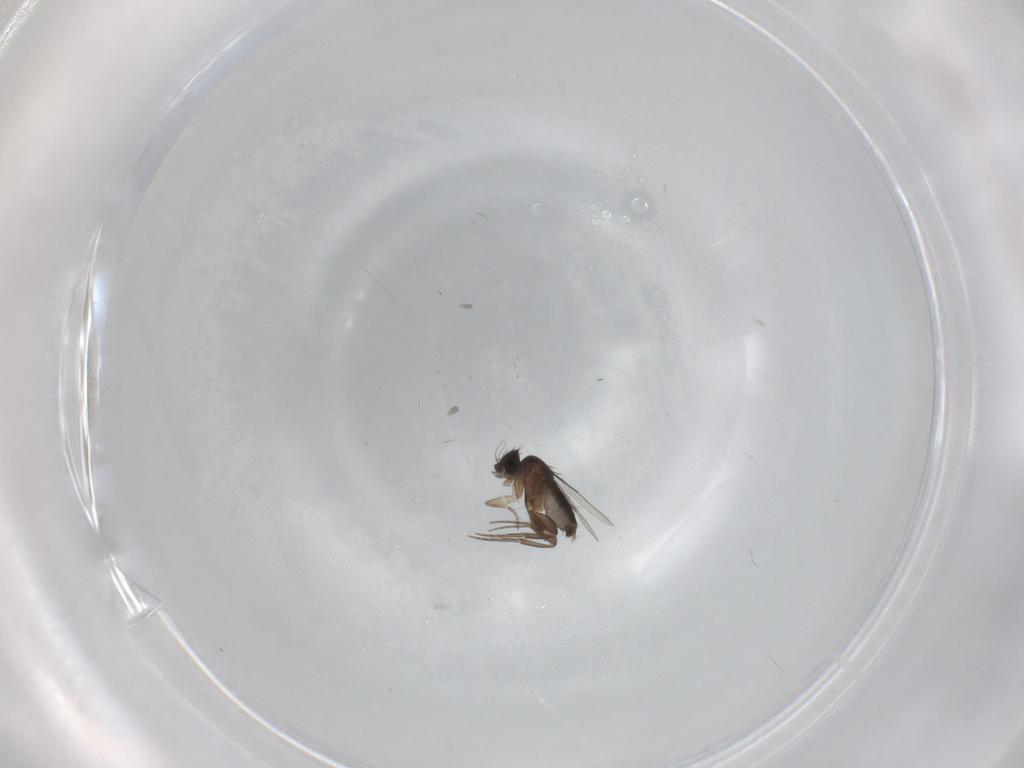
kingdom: Animalia
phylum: Arthropoda
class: Insecta
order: Diptera
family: Phoridae
